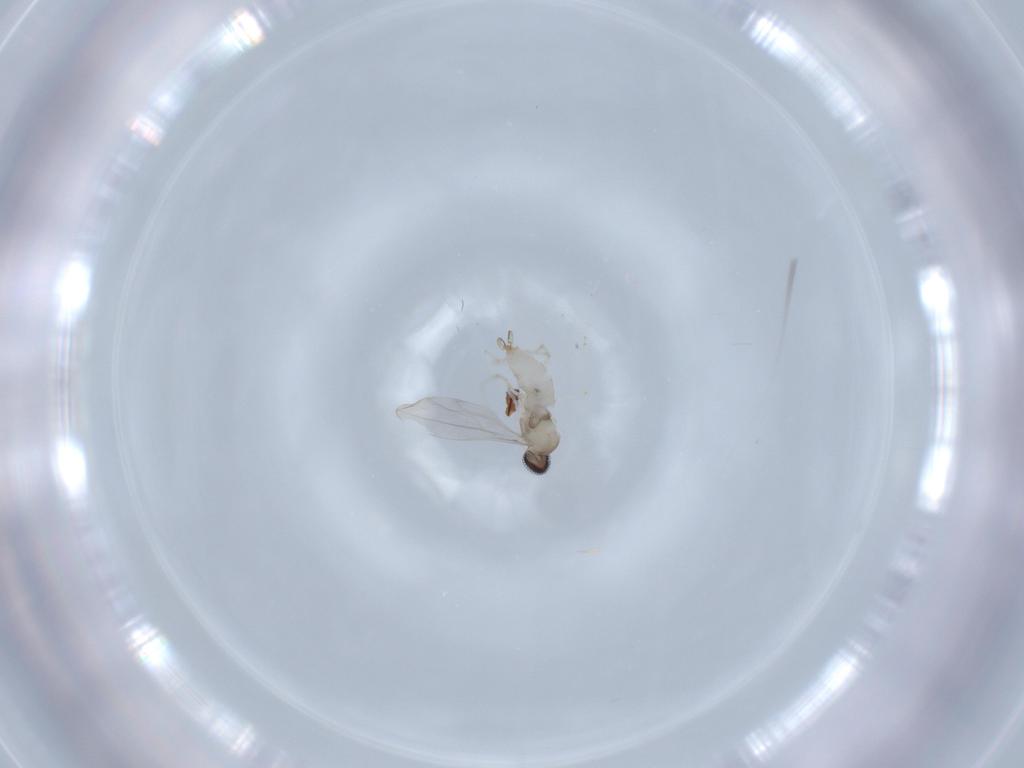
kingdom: Animalia
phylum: Arthropoda
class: Insecta
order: Diptera
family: Cecidomyiidae
